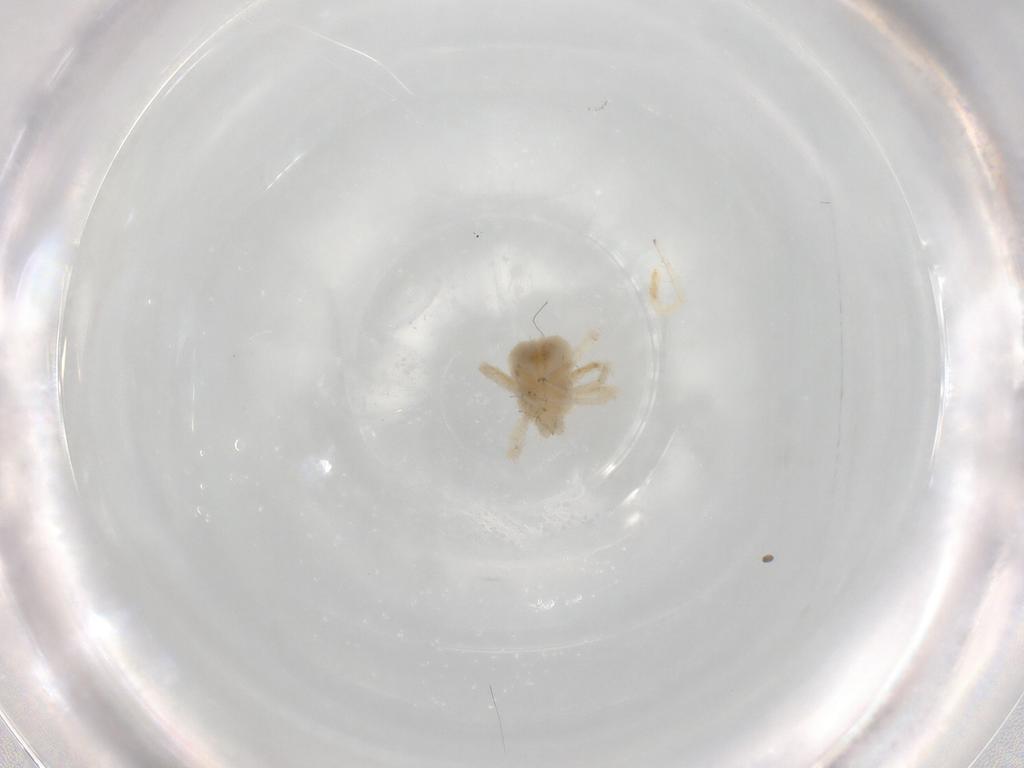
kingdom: Animalia
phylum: Arthropoda
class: Arachnida
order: Trombidiformes
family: Anystidae
